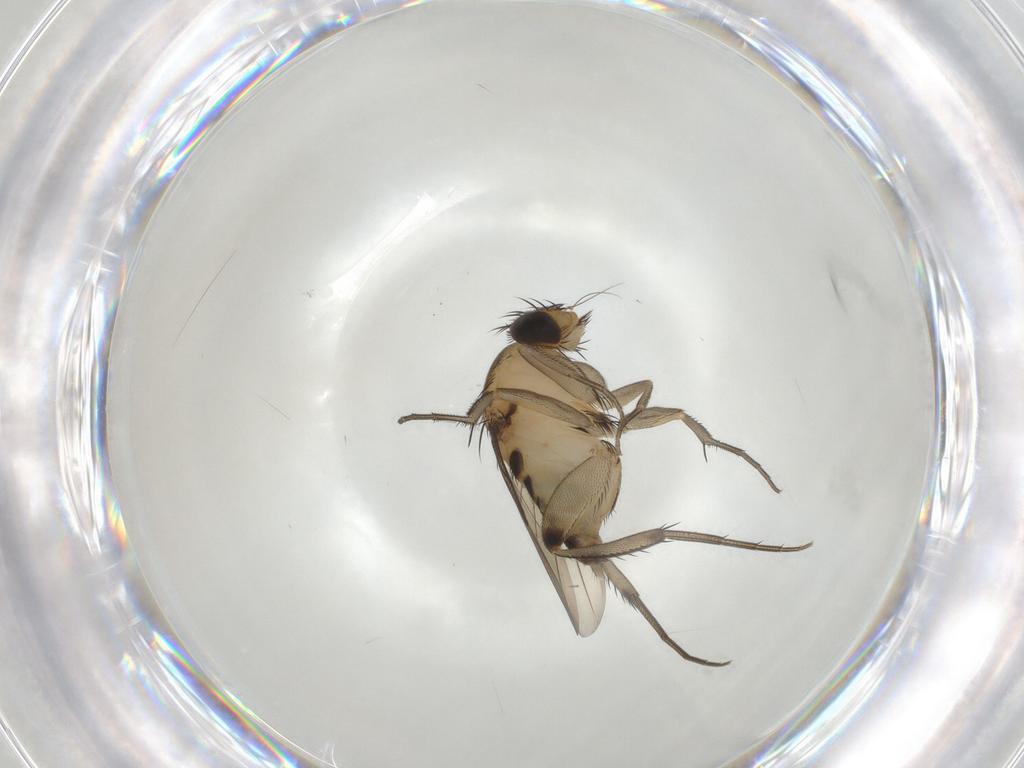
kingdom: Animalia
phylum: Arthropoda
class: Insecta
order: Diptera
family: Phoridae
